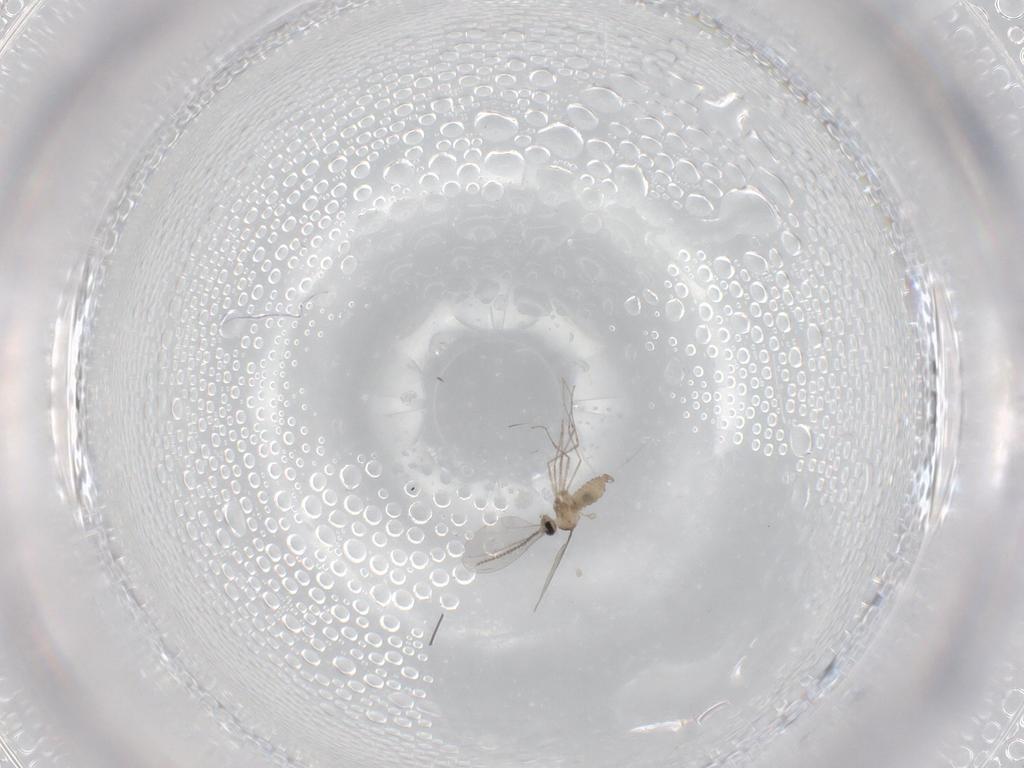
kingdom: Animalia
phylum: Arthropoda
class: Insecta
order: Diptera
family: Cecidomyiidae
